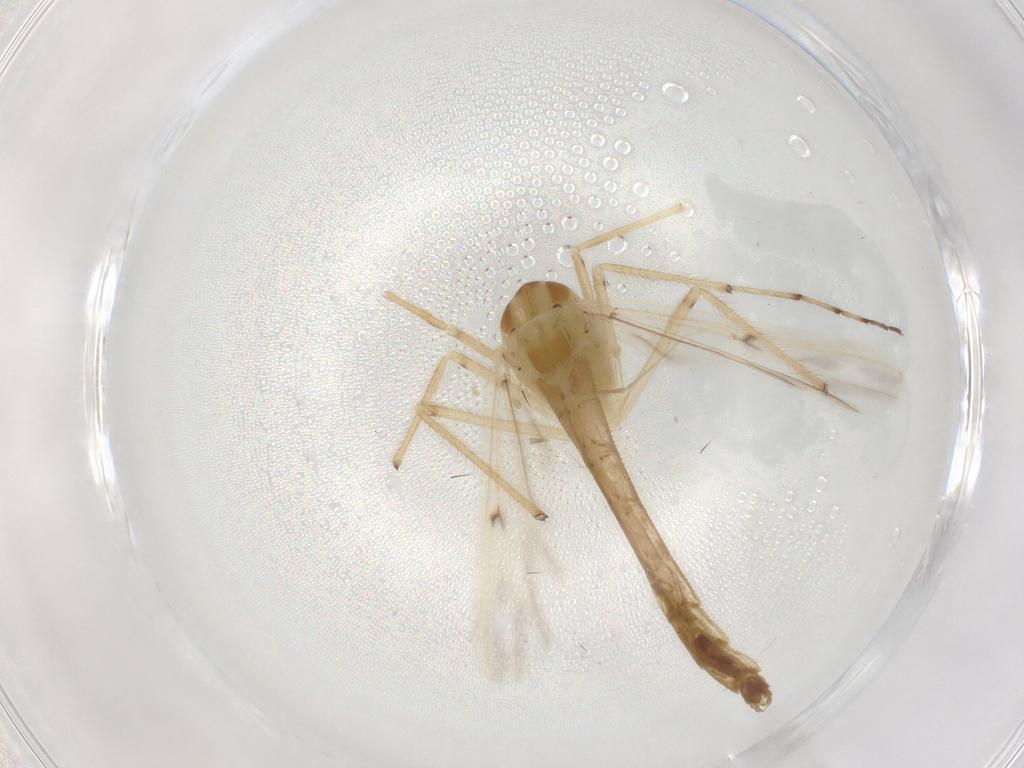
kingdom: Animalia
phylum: Arthropoda
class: Insecta
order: Diptera
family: Chironomidae
